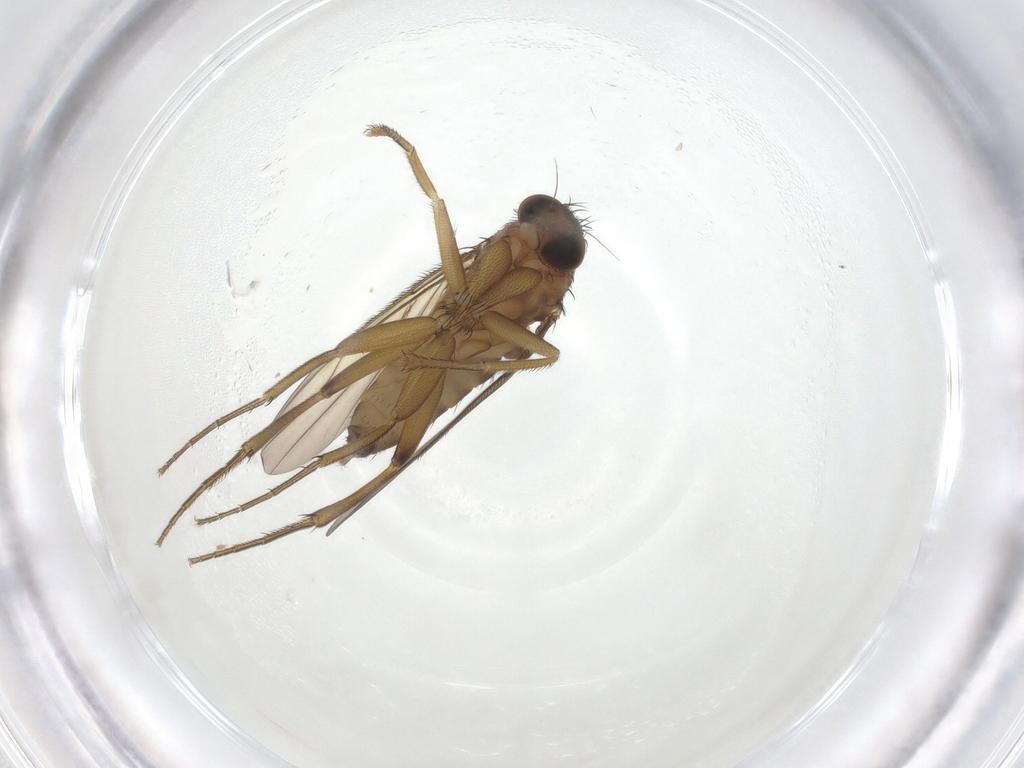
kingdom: Animalia
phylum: Arthropoda
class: Insecta
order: Diptera
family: Phoridae
